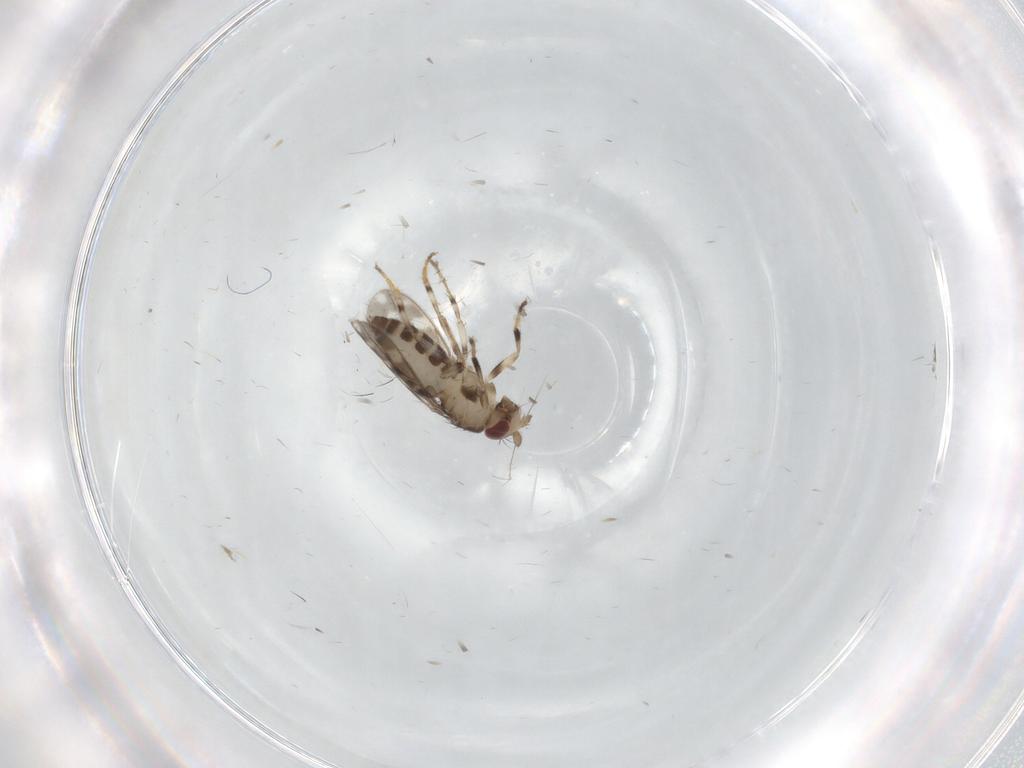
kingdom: Animalia
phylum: Arthropoda
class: Insecta
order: Diptera
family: Sphaeroceridae
